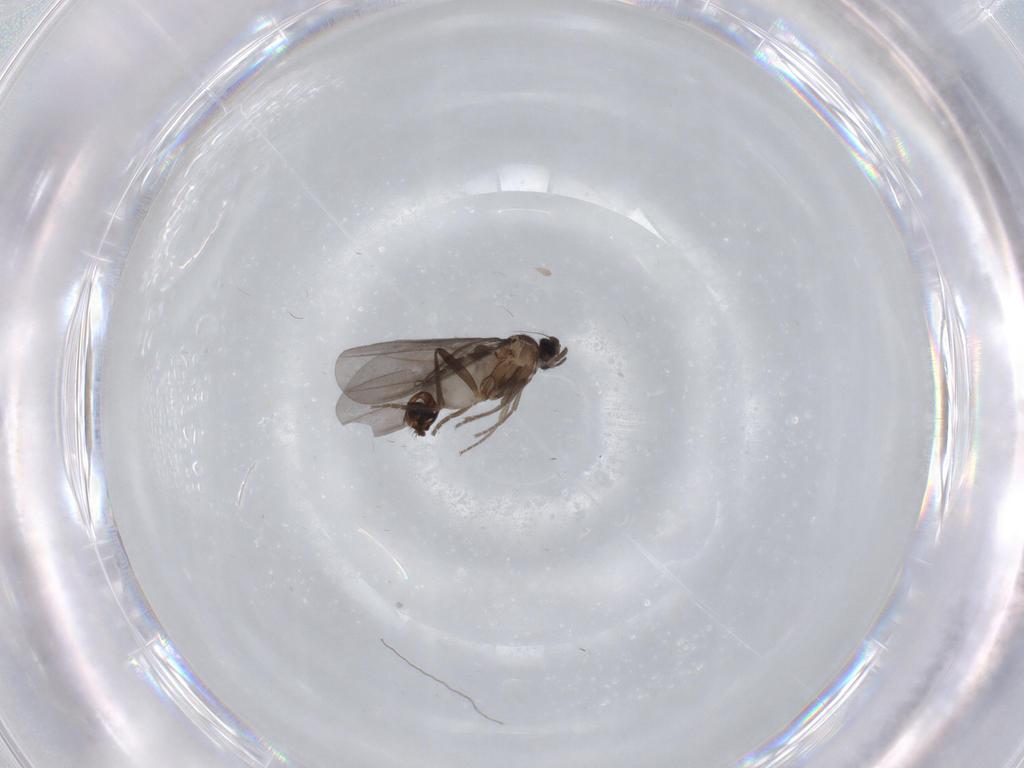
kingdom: Animalia
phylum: Arthropoda
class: Insecta
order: Diptera
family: Phoridae
